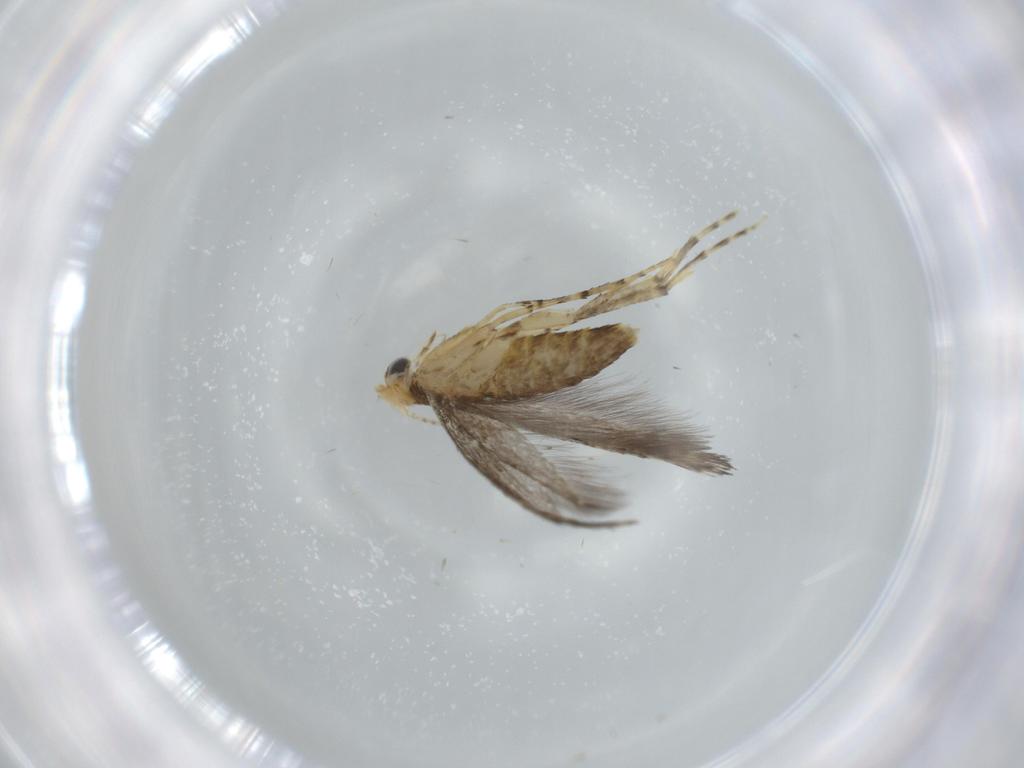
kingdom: Animalia
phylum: Arthropoda
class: Insecta
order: Lepidoptera
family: Argyresthiidae
